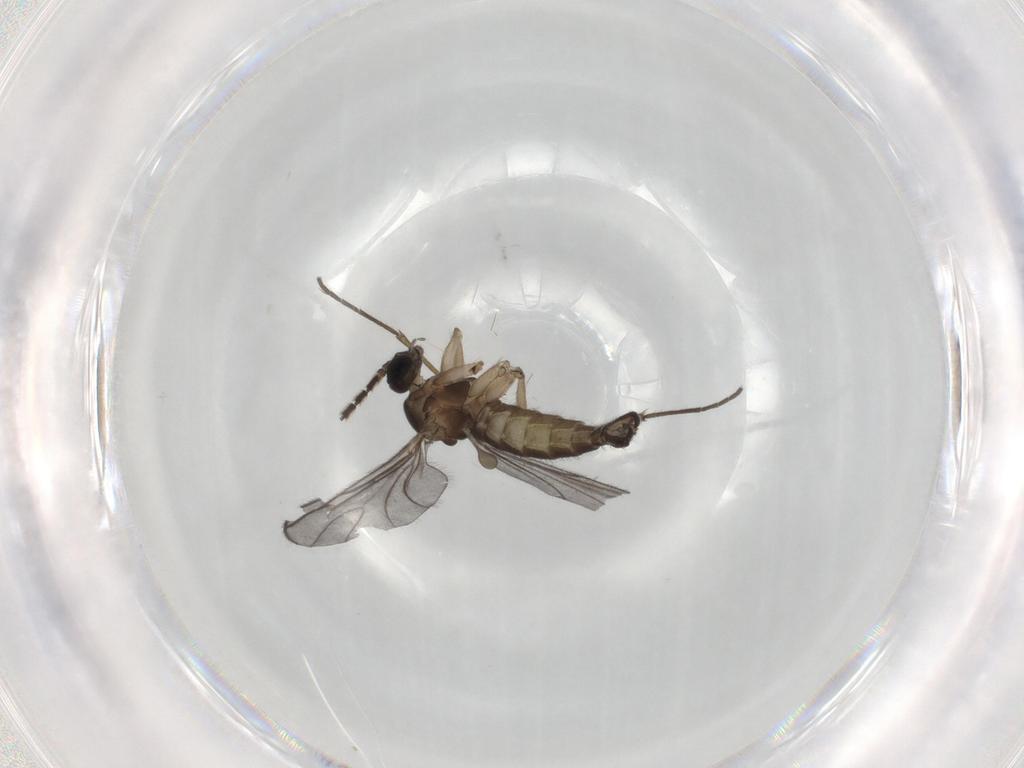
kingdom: Animalia
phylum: Arthropoda
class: Insecta
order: Diptera
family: Sciaridae
